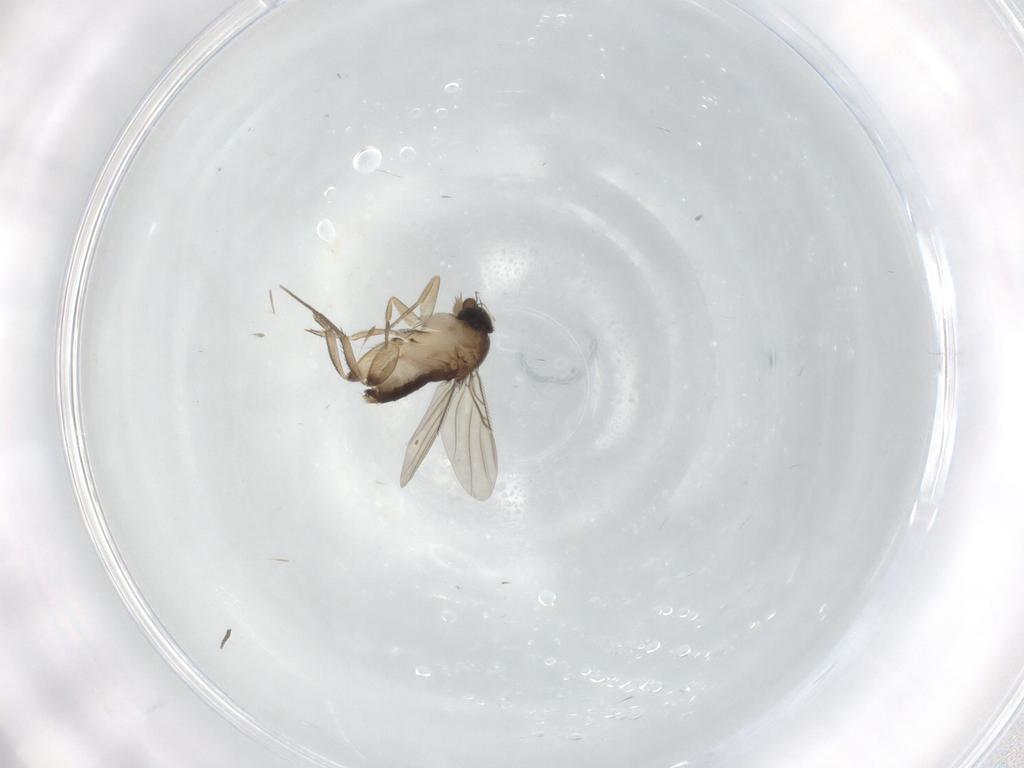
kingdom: Animalia
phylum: Arthropoda
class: Insecta
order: Diptera
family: Phoridae
